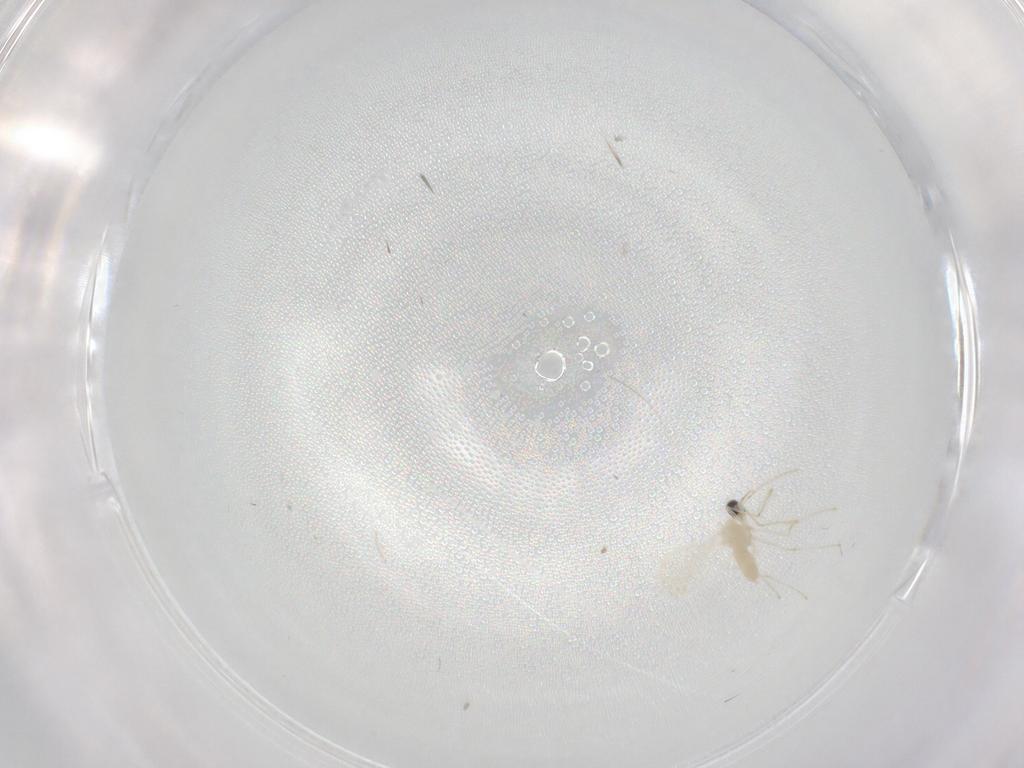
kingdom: Animalia
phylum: Arthropoda
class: Insecta
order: Diptera
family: Cecidomyiidae
